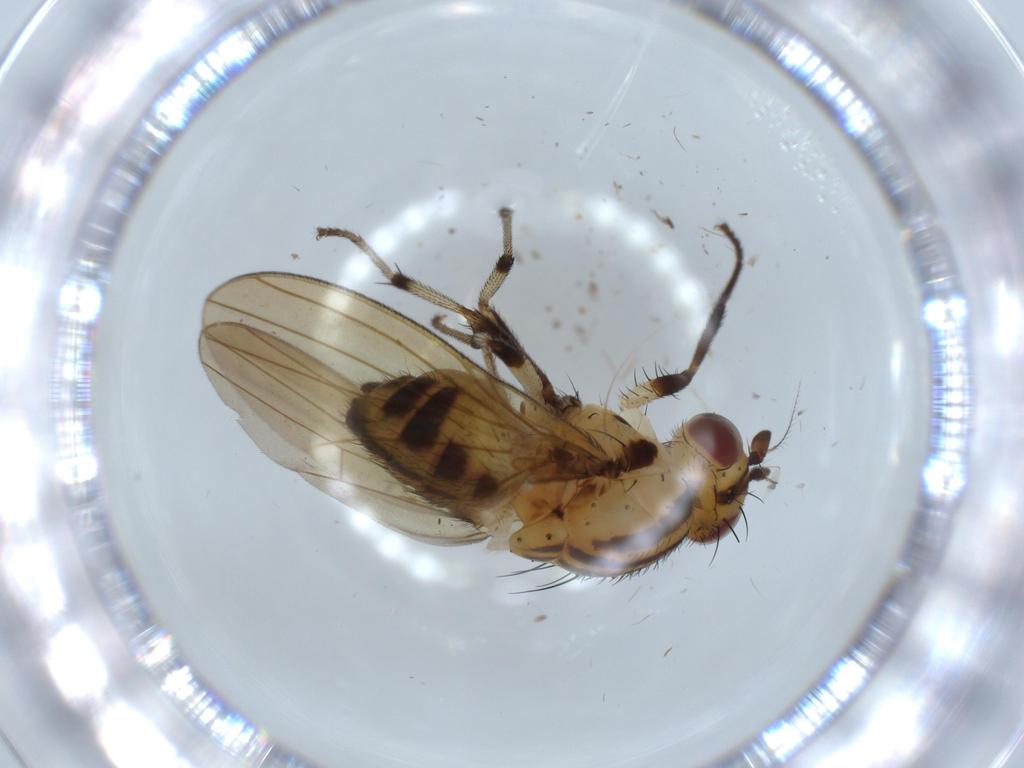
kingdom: Animalia
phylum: Arthropoda
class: Insecta
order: Diptera
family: Lauxaniidae
